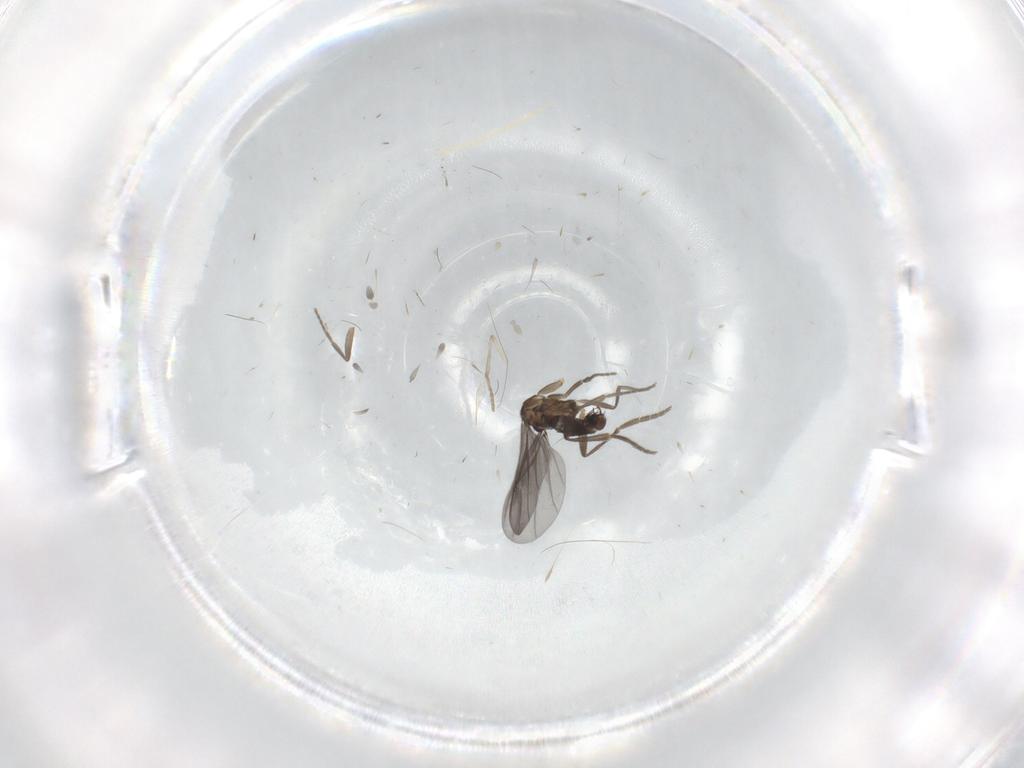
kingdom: Animalia
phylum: Arthropoda
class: Insecta
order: Diptera
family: Phoridae
